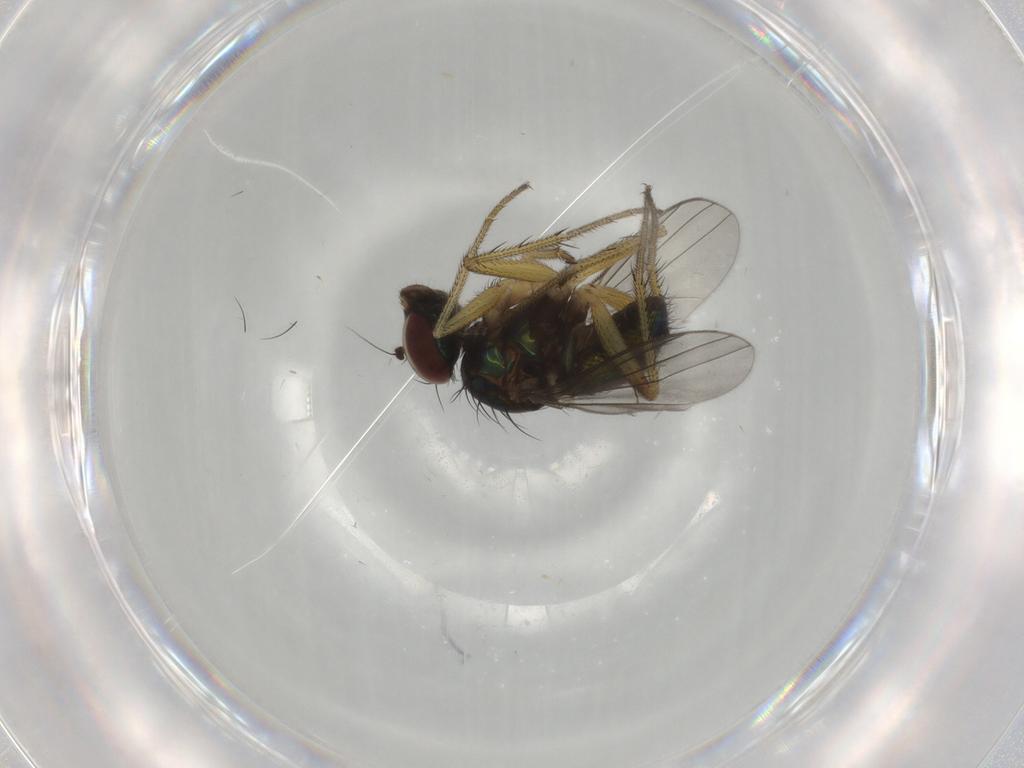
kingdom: Animalia
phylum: Arthropoda
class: Insecta
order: Diptera
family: Dolichopodidae
